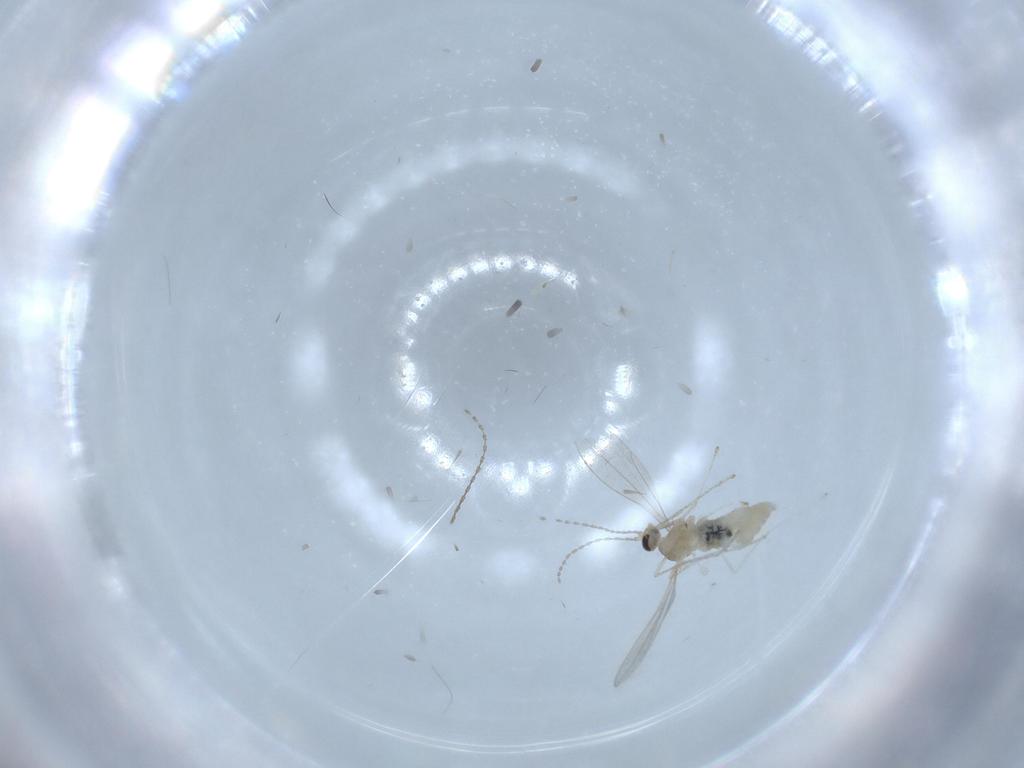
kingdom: Animalia
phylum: Arthropoda
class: Insecta
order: Diptera
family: Cecidomyiidae
